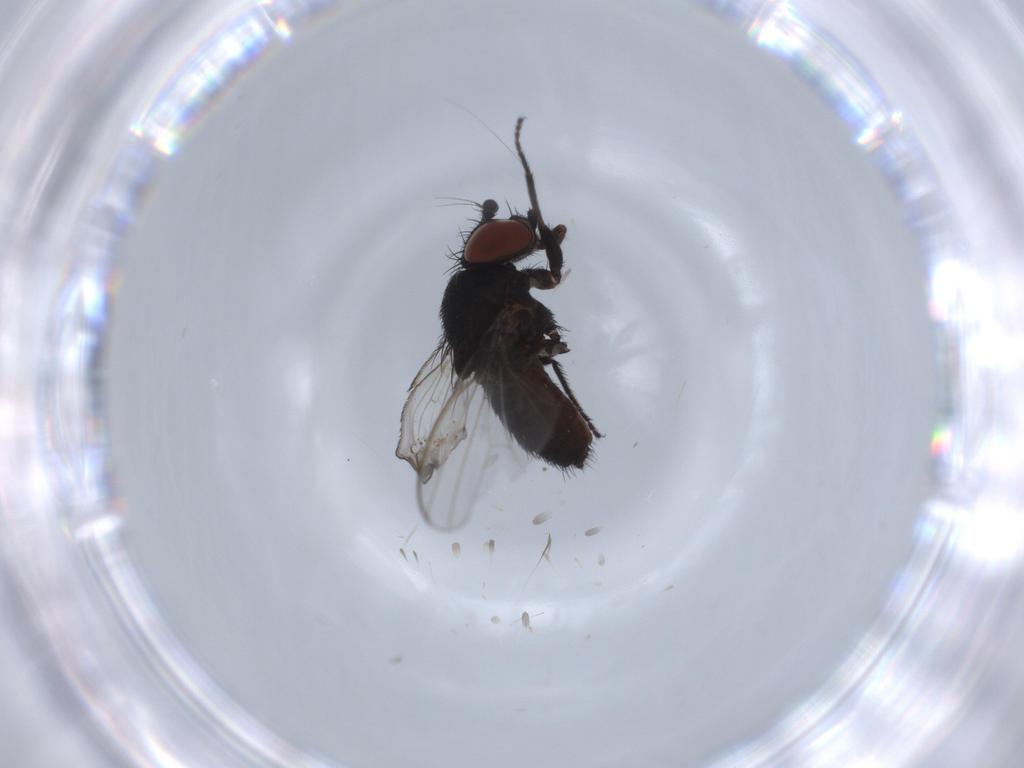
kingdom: Animalia
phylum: Arthropoda
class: Insecta
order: Diptera
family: Milichiidae
